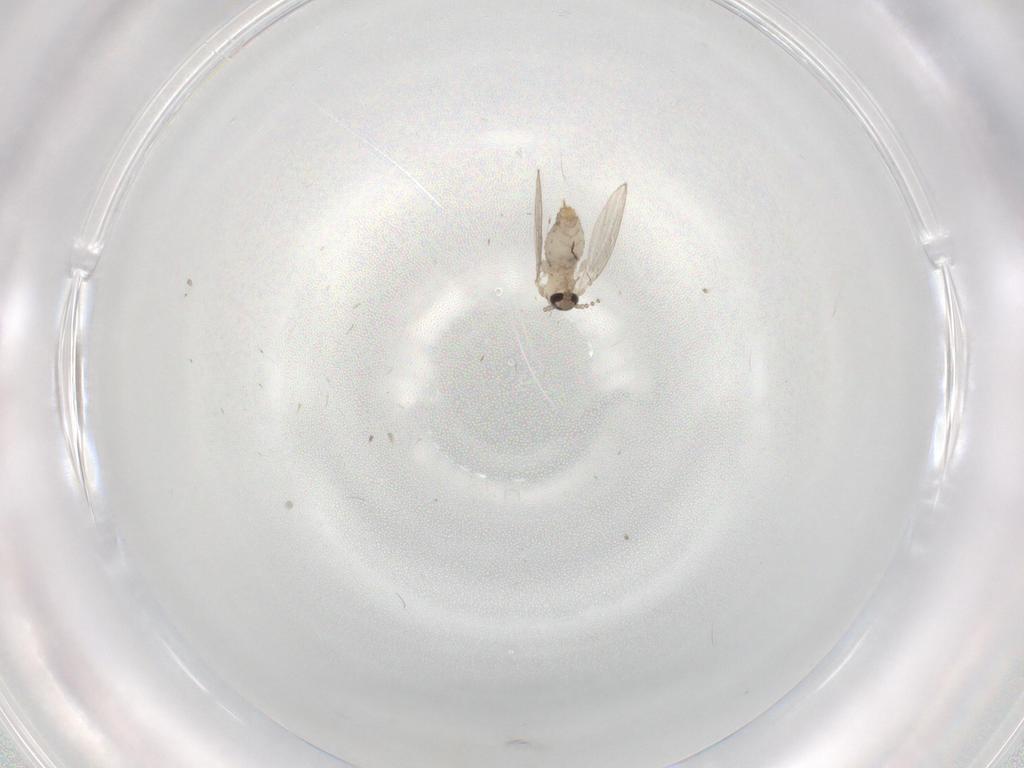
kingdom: Animalia
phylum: Arthropoda
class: Insecta
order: Diptera
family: Psychodidae
